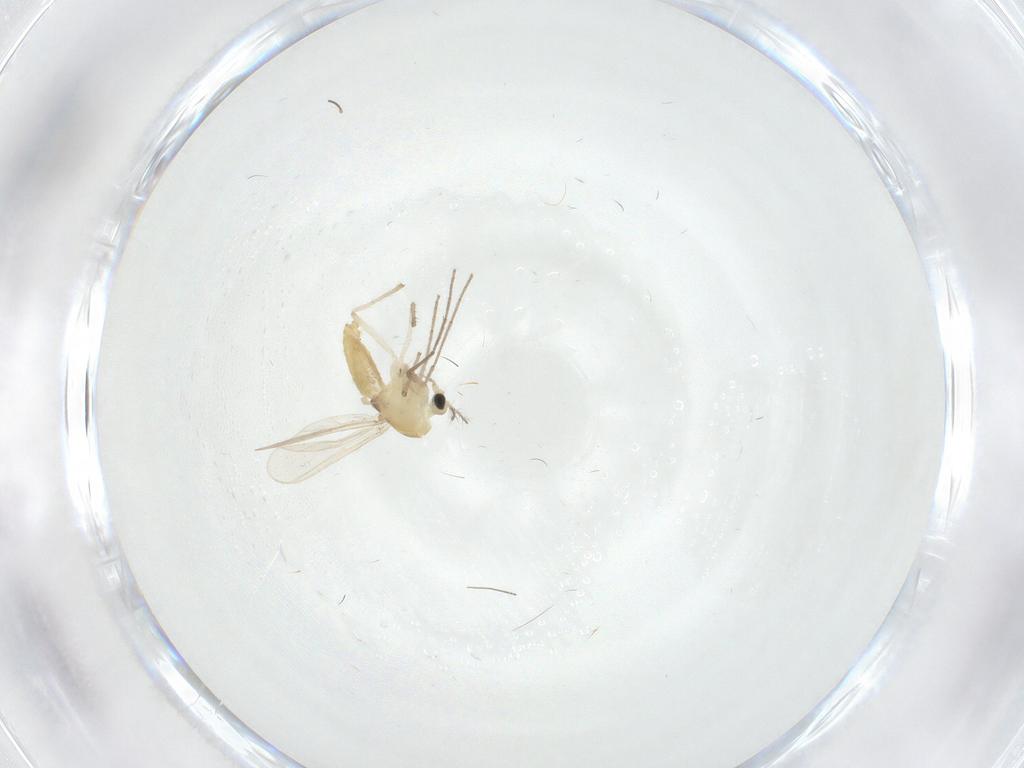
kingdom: Animalia
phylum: Arthropoda
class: Insecta
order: Diptera
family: Chironomidae
